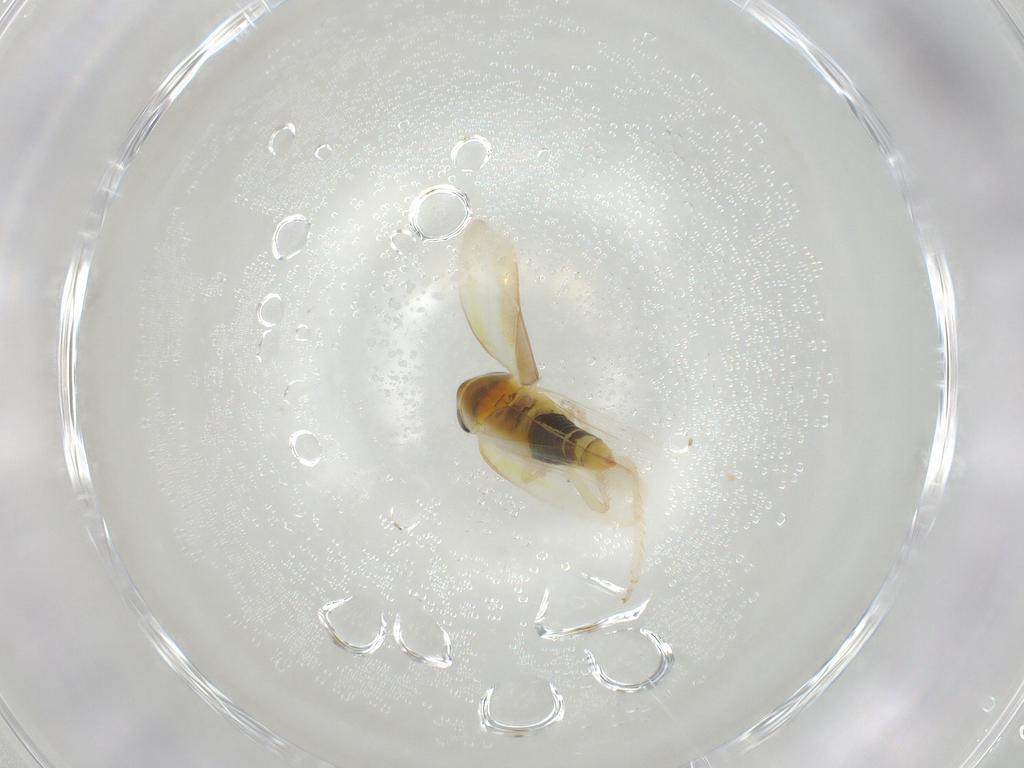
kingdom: Animalia
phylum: Arthropoda
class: Insecta
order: Hemiptera
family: Cicadellidae
